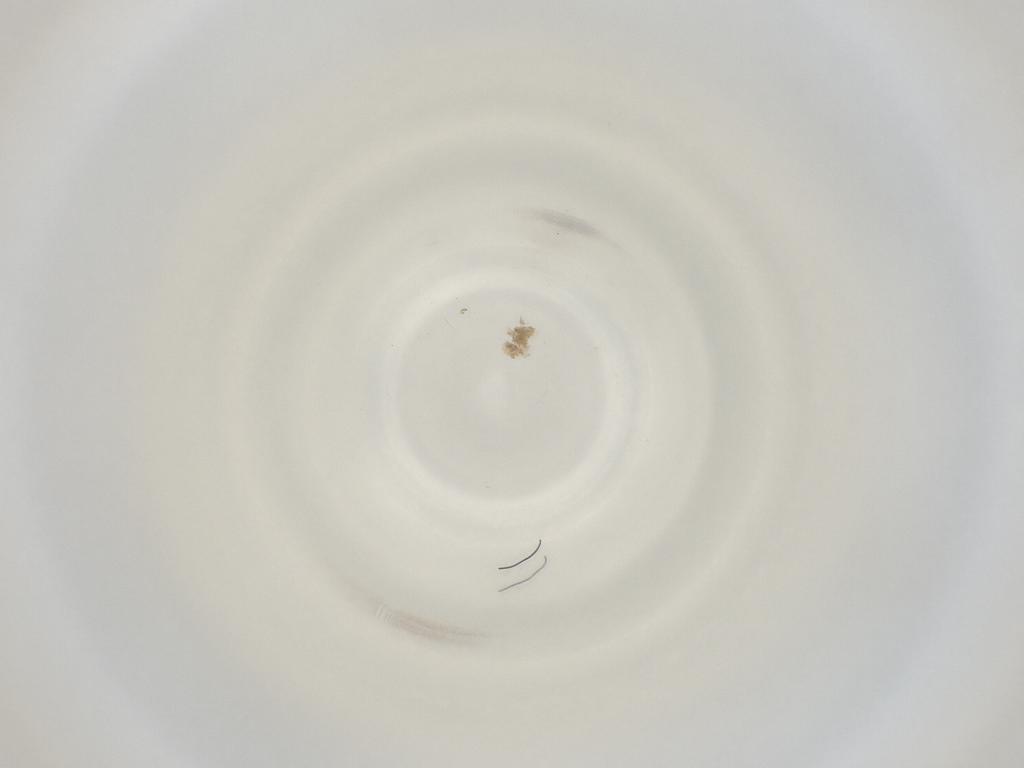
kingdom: Animalia
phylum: Arthropoda
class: Insecta
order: Diptera
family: Cecidomyiidae
